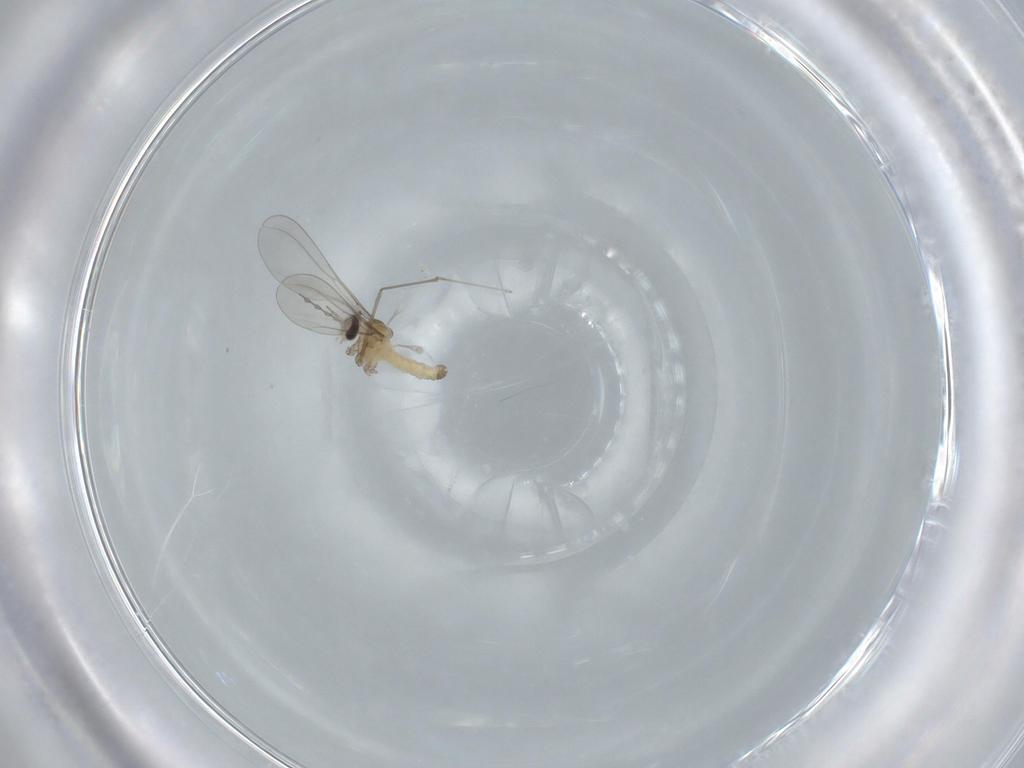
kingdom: Animalia
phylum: Arthropoda
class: Insecta
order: Diptera
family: Cecidomyiidae
